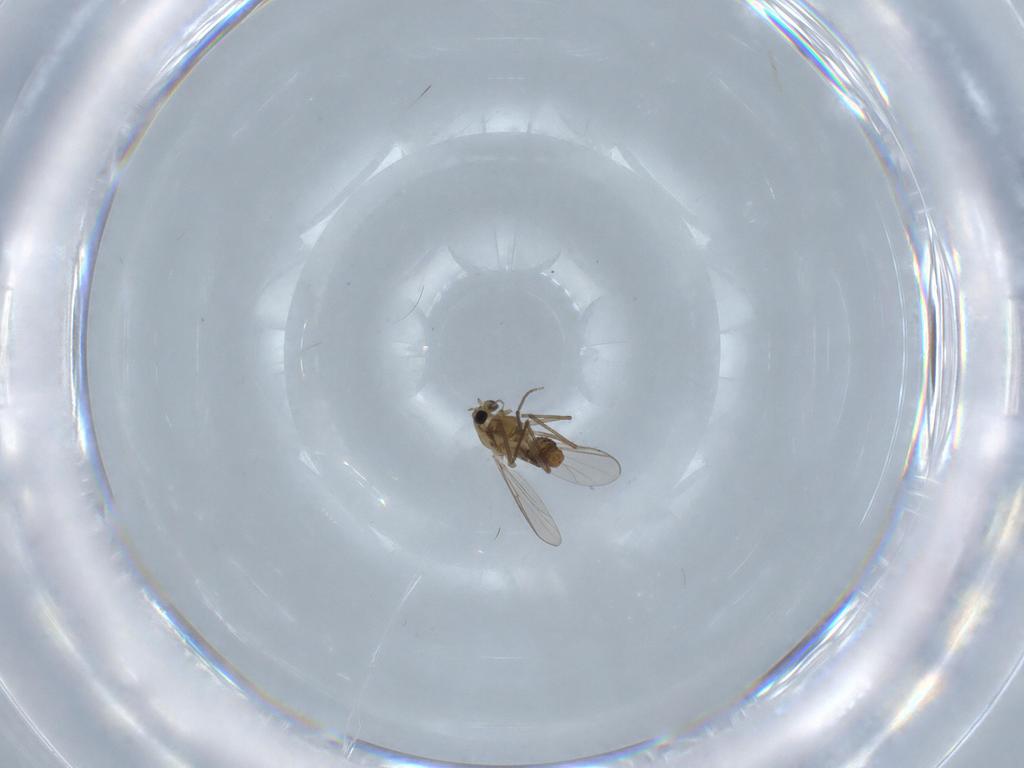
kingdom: Animalia
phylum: Arthropoda
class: Insecta
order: Diptera
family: Chironomidae
